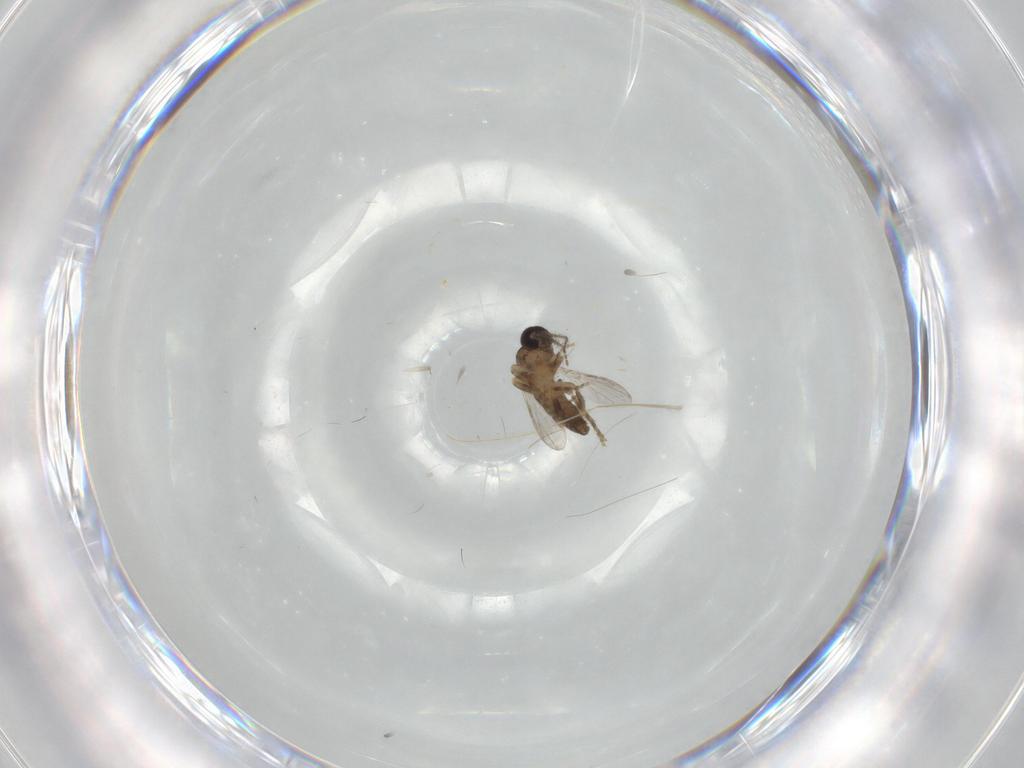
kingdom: Animalia
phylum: Arthropoda
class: Insecta
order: Diptera
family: Ceratopogonidae
